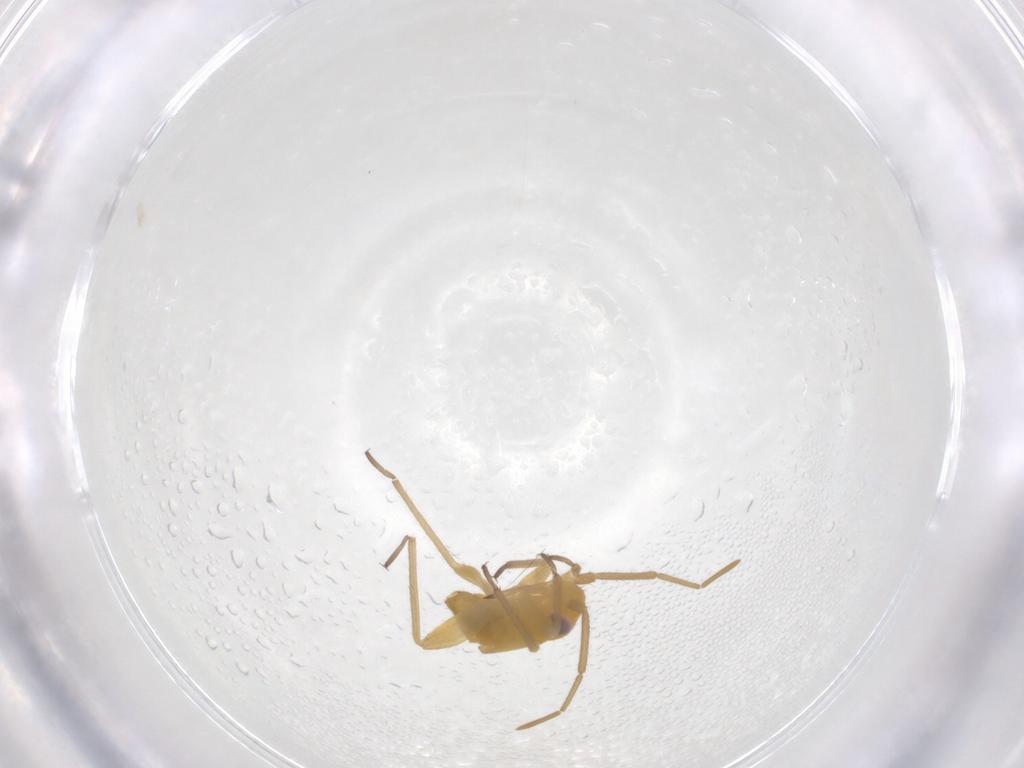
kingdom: Animalia
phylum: Arthropoda
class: Insecta
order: Hemiptera
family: Miridae
